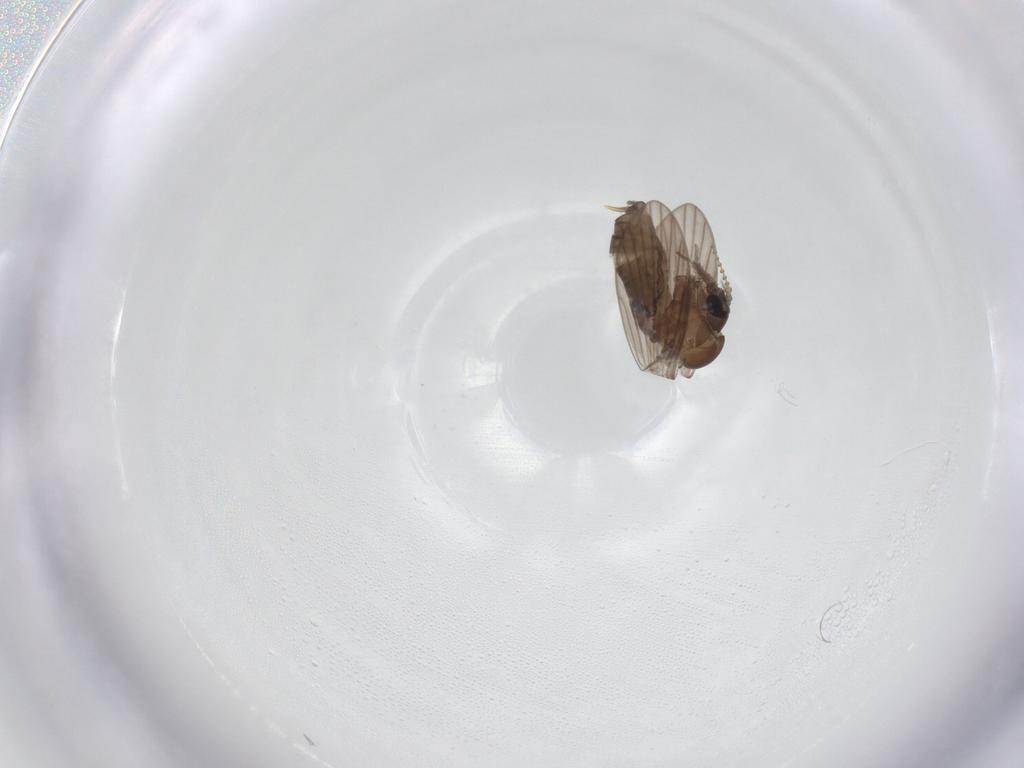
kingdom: Animalia
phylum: Arthropoda
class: Insecta
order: Diptera
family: Psychodidae
